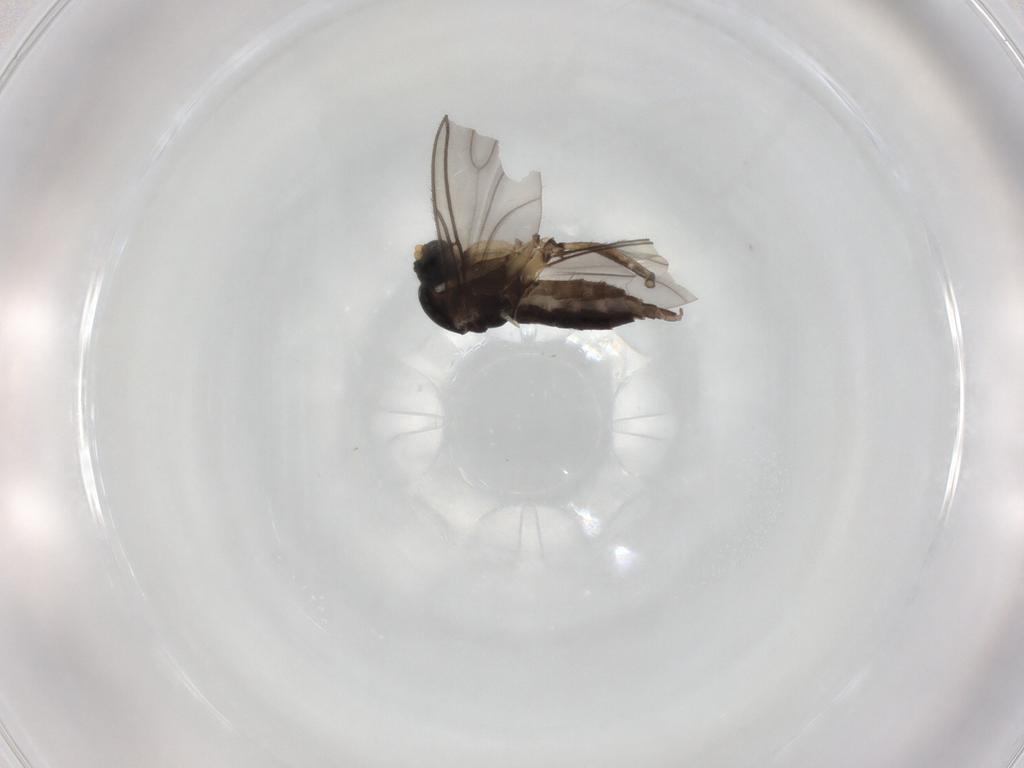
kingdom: Animalia
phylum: Arthropoda
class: Insecta
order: Diptera
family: Sciaridae
